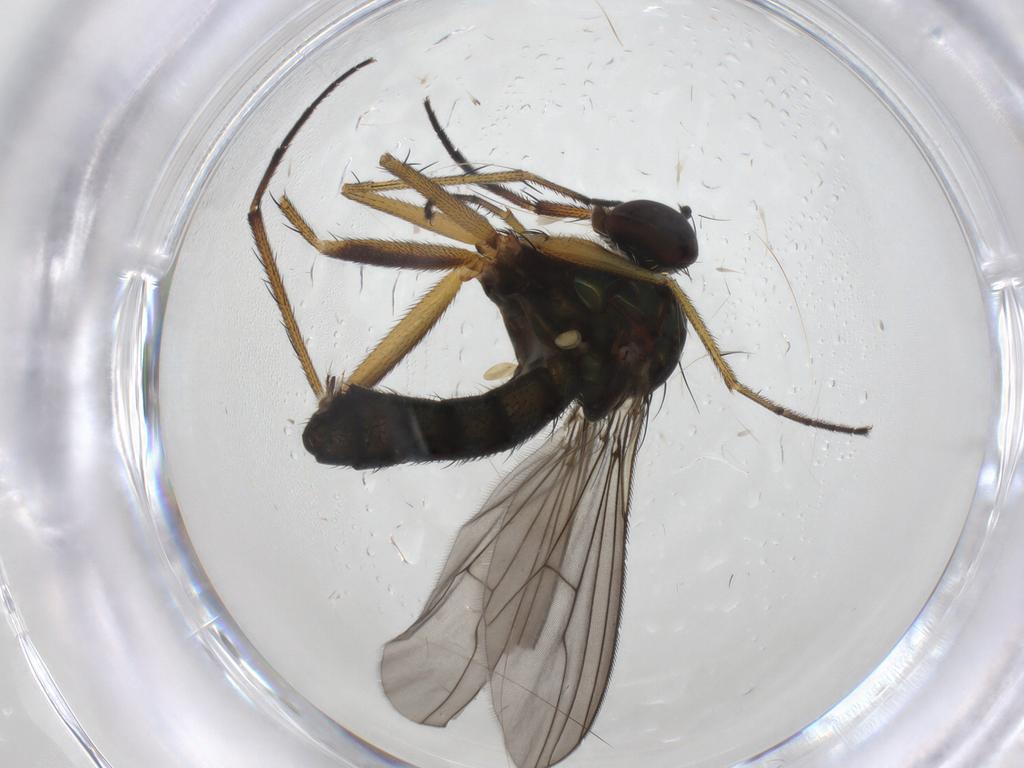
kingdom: Animalia
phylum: Arthropoda
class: Insecta
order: Diptera
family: Dolichopodidae
